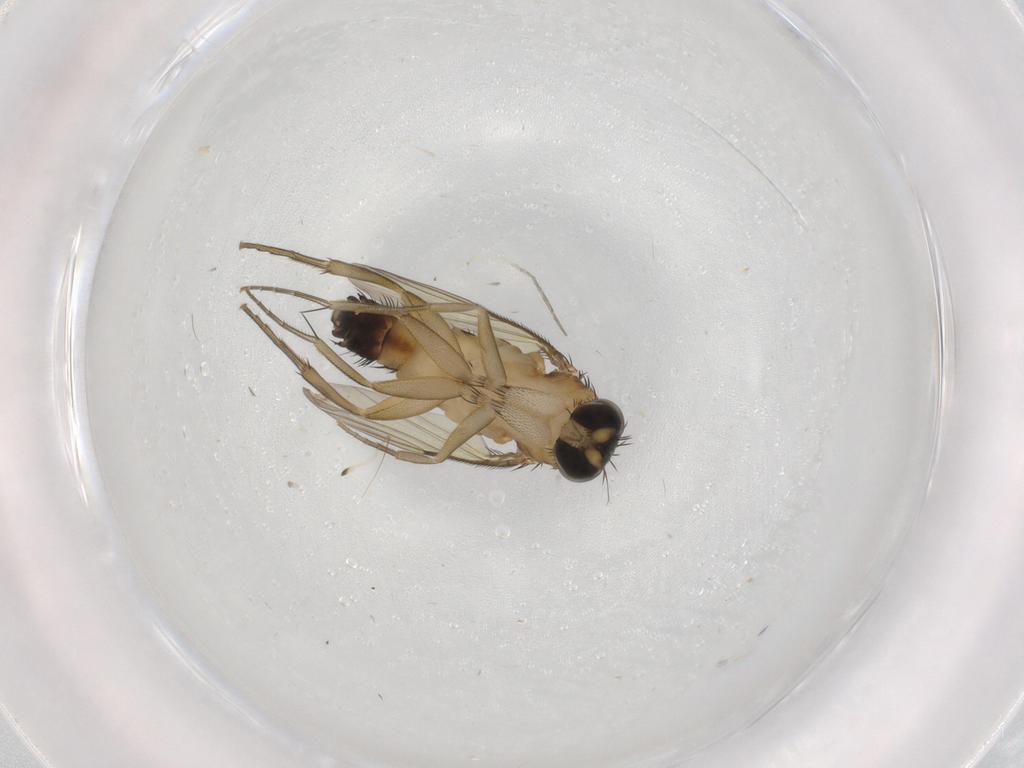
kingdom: Animalia
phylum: Arthropoda
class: Insecta
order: Diptera
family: Phoridae
